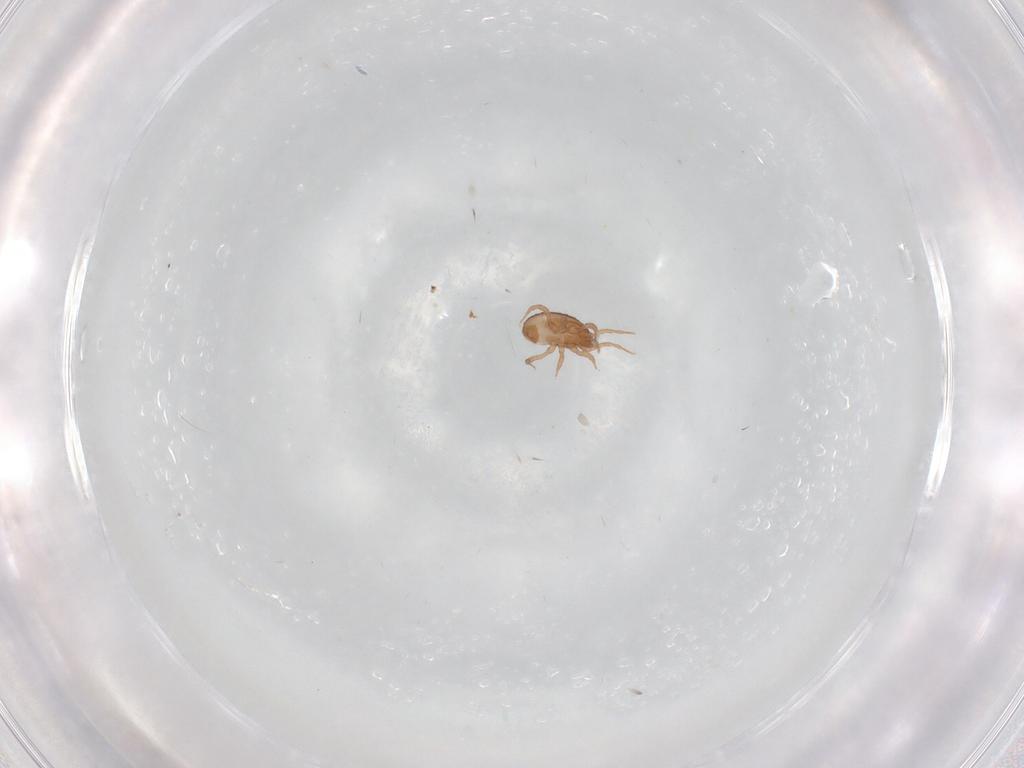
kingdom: Animalia
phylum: Arthropoda
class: Arachnida
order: Mesostigmata
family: Blattisociidae
